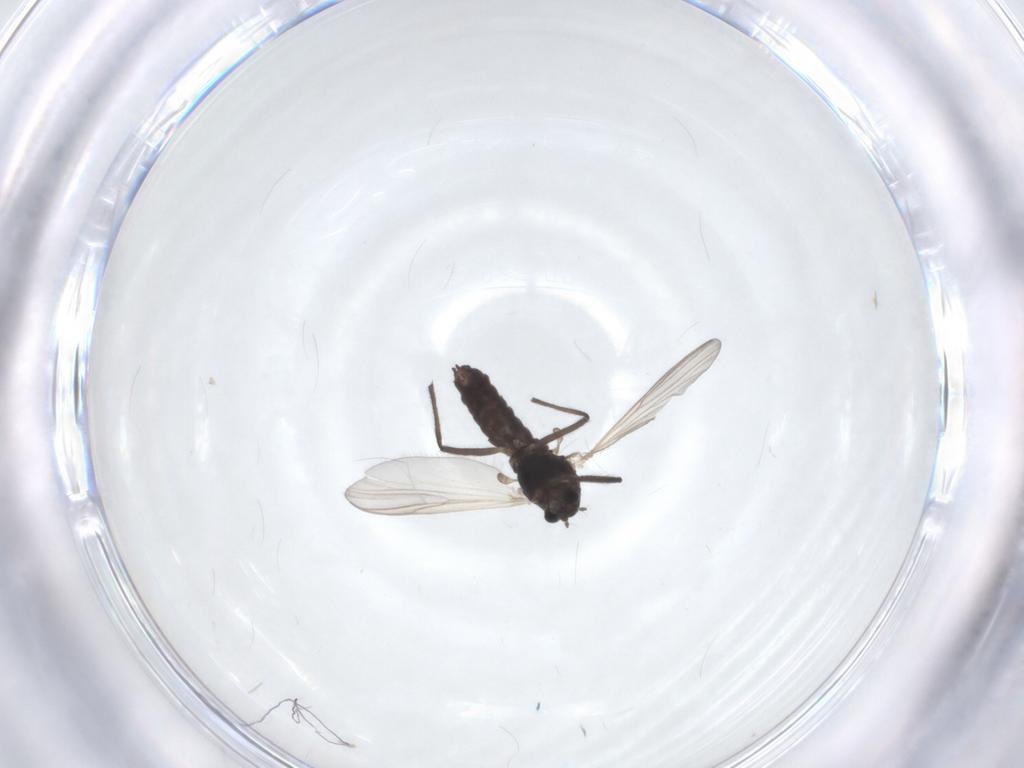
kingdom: Animalia
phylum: Arthropoda
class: Insecta
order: Diptera
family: Chironomidae
